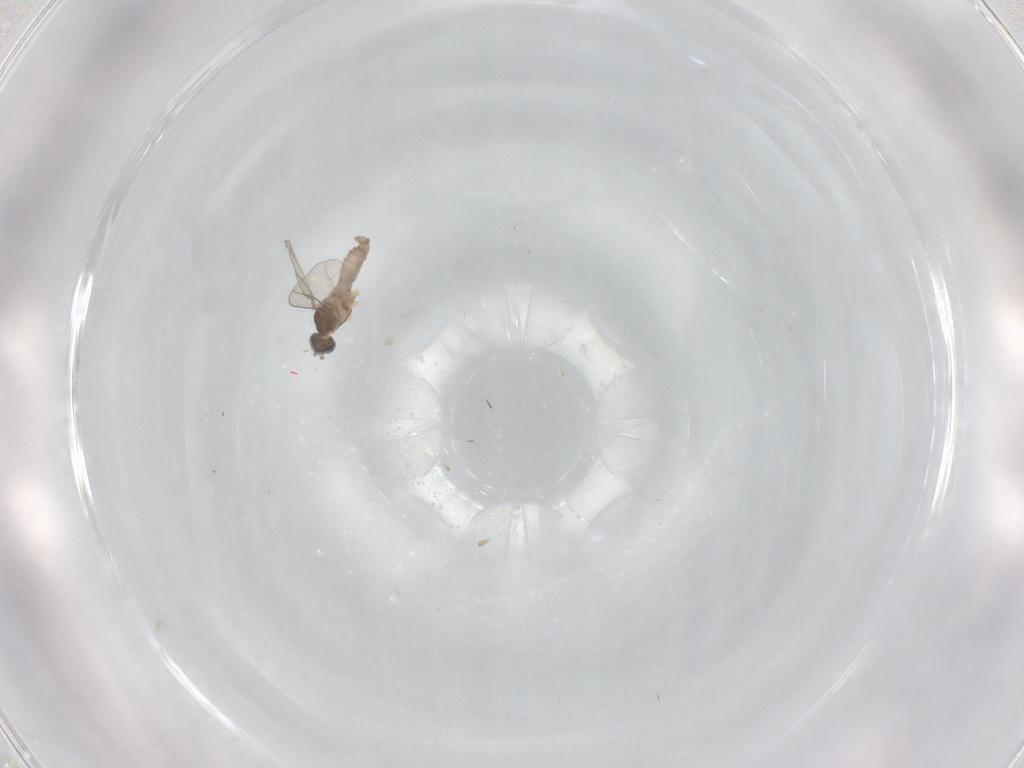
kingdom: Animalia
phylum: Arthropoda
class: Insecta
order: Diptera
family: Cecidomyiidae
